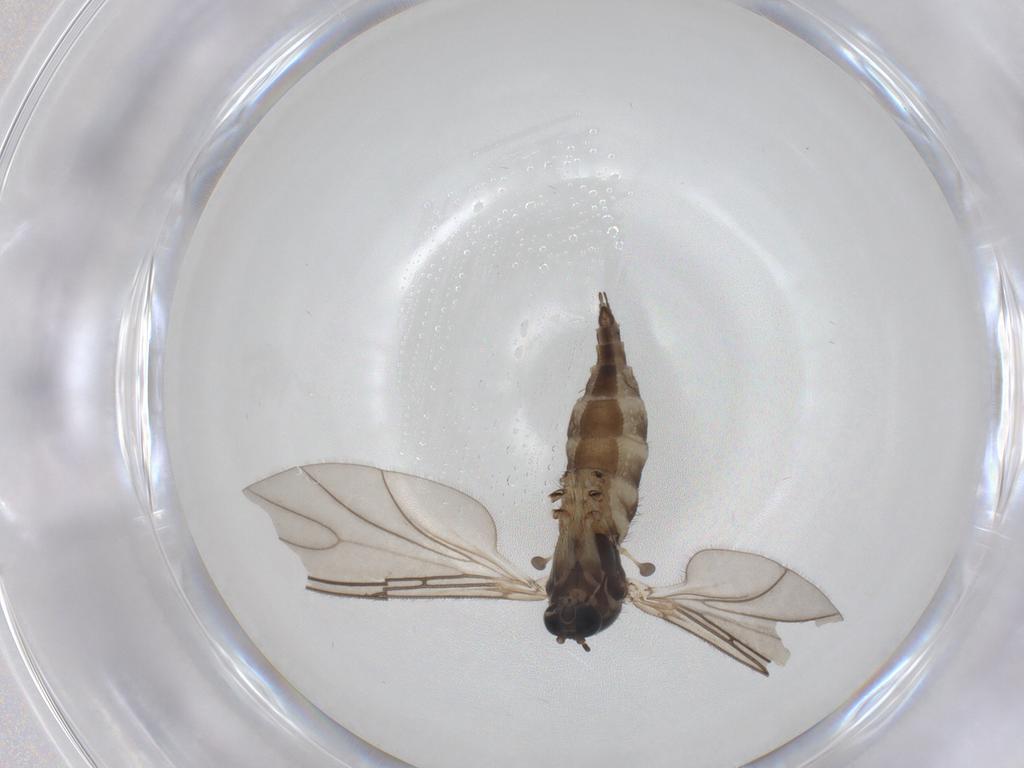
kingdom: Animalia
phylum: Arthropoda
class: Insecta
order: Diptera
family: Sciaridae
